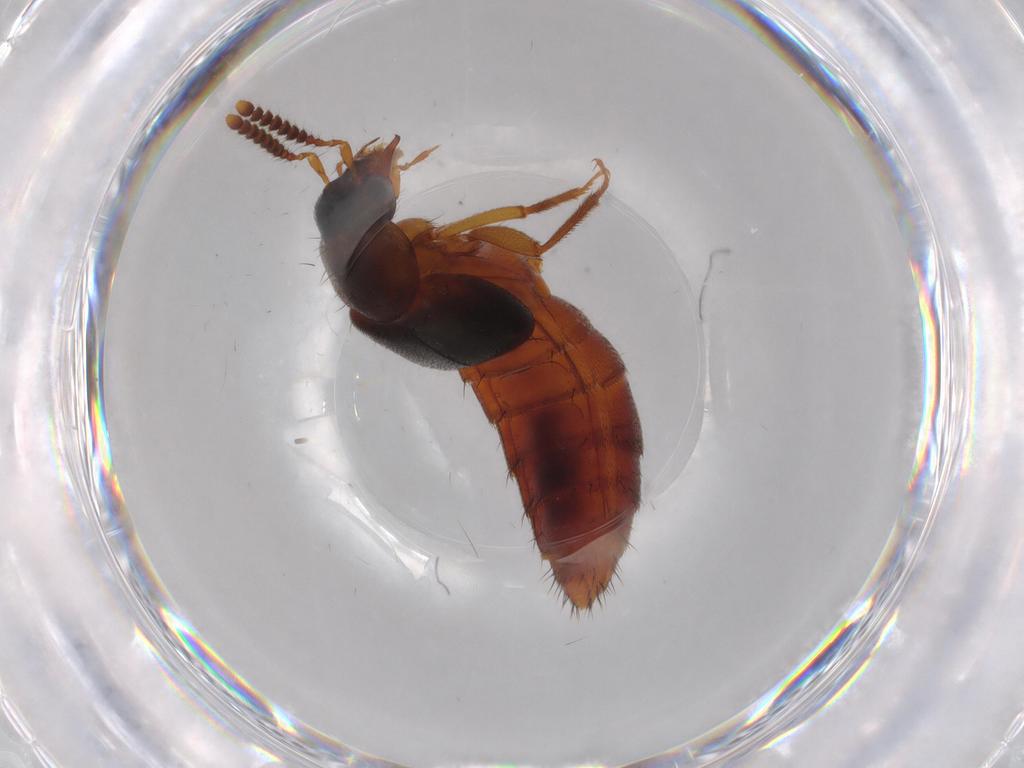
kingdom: Animalia
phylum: Arthropoda
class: Insecta
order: Coleoptera
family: Staphylinidae
